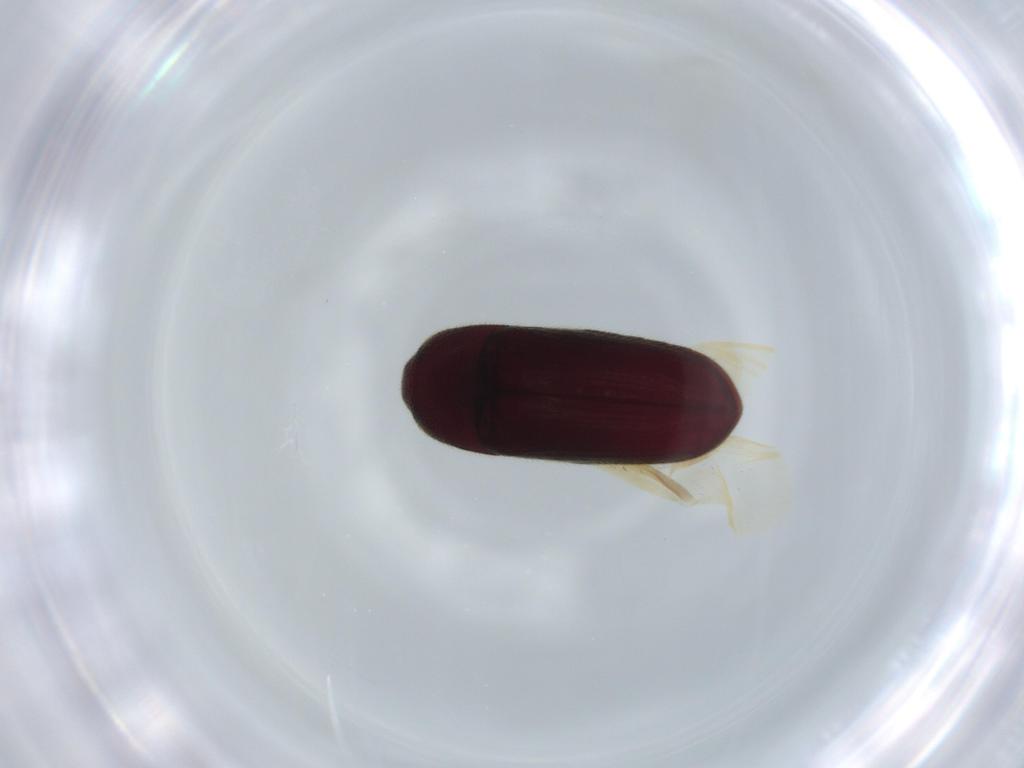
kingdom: Animalia
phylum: Arthropoda
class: Insecta
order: Coleoptera
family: Throscidae
